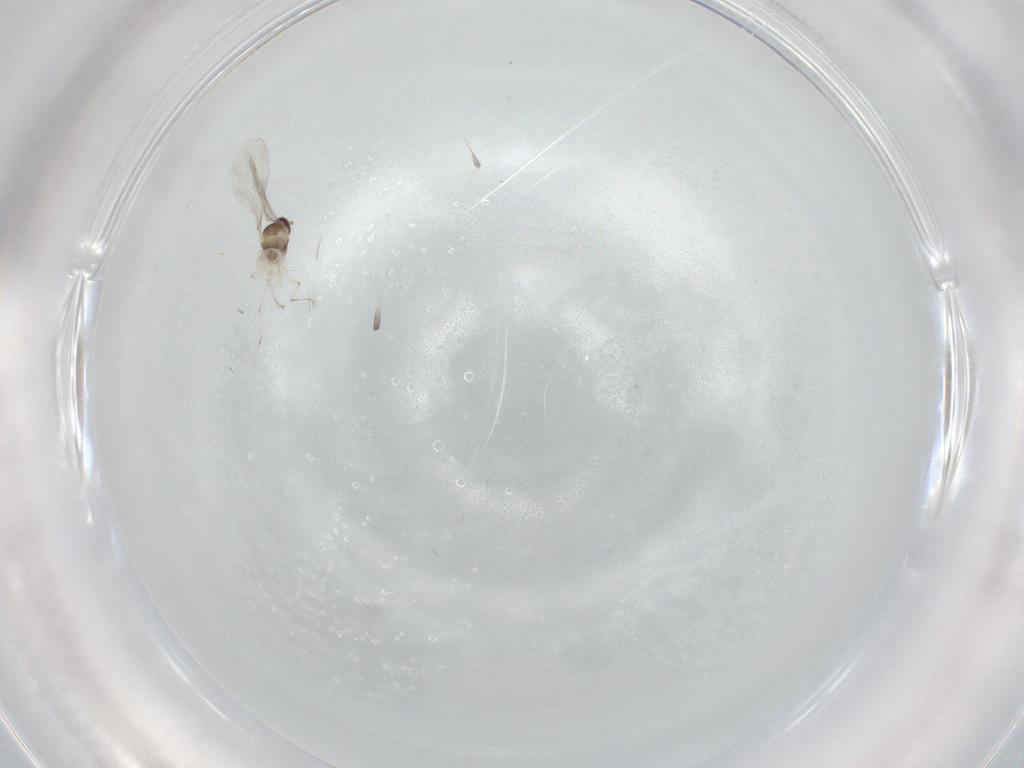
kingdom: Animalia
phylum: Arthropoda
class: Insecta
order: Diptera
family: Cecidomyiidae
